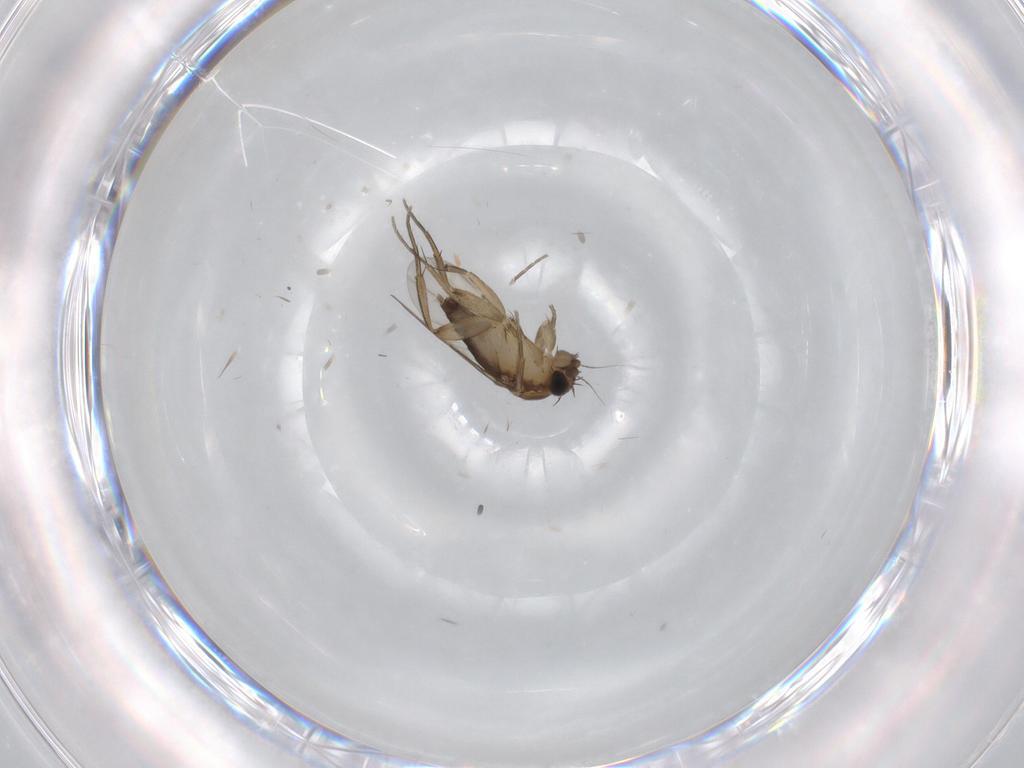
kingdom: Animalia
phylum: Arthropoda
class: Insecta
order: Diptera
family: Phoridae
